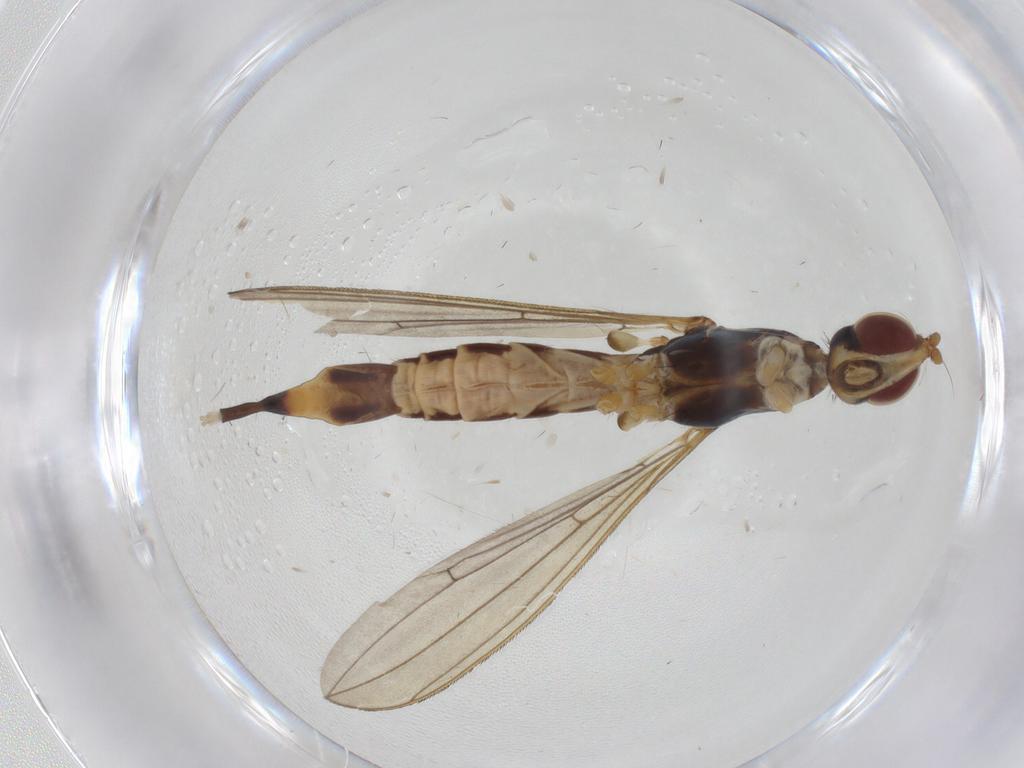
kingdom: Animalia
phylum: Arthropoda
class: Insecta
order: Diptera
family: Micropezidae
